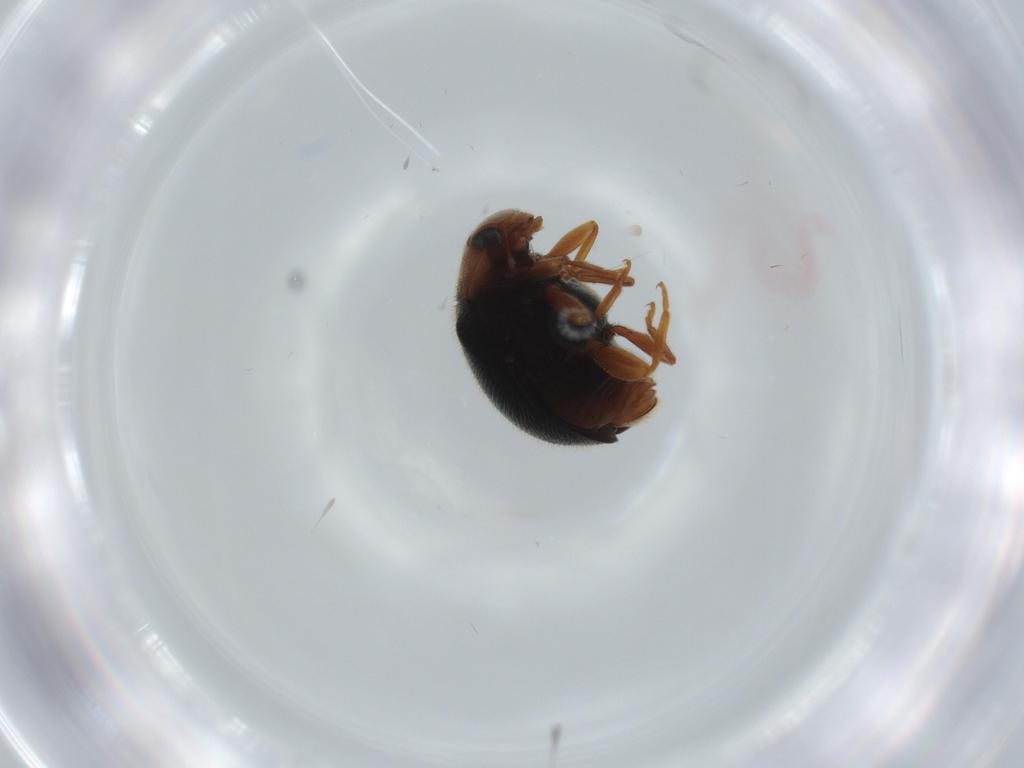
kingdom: Animalia
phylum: Arthropoda
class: Insecta
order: Coleoptera
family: Coccinellidae
